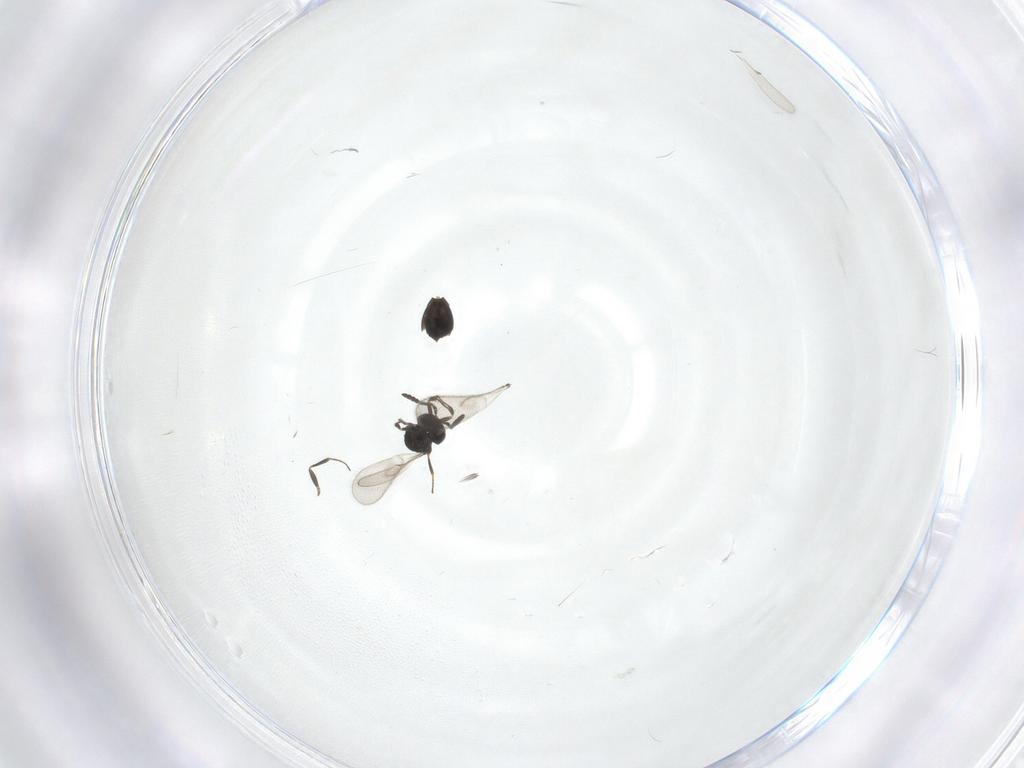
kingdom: Animalia
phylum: Arthropoda
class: Insecta
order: Hymenoptera
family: Scelionidae
